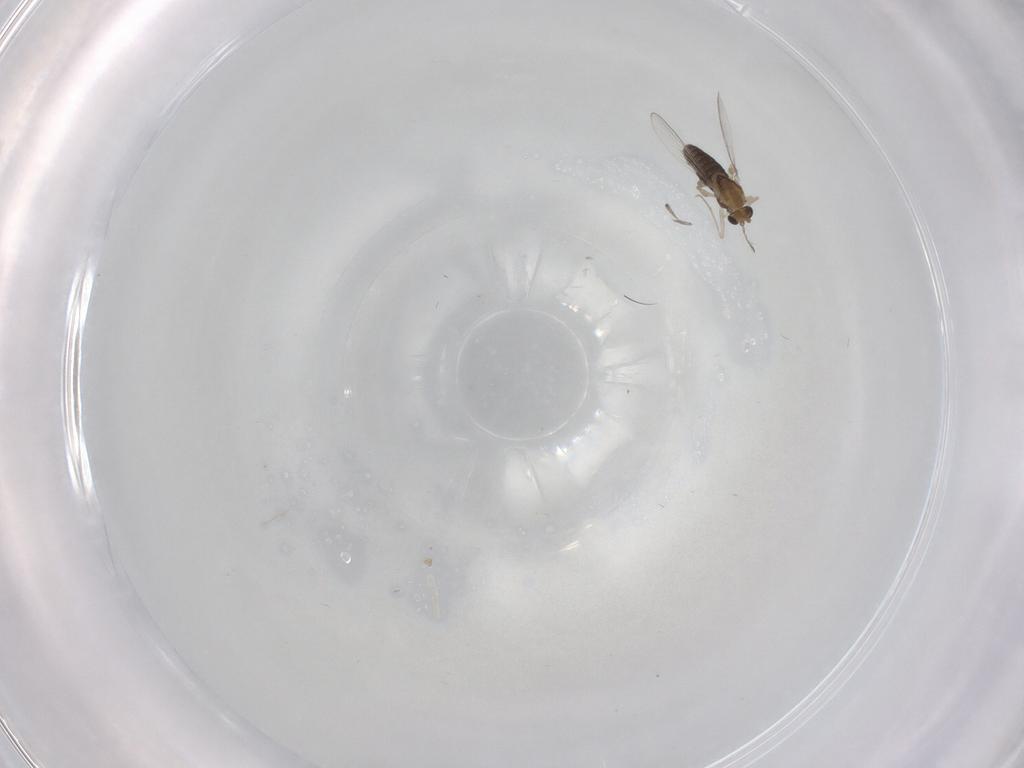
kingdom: Animalia
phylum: Arthropoda
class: Insecta
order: Diptera
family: Chironomidae
